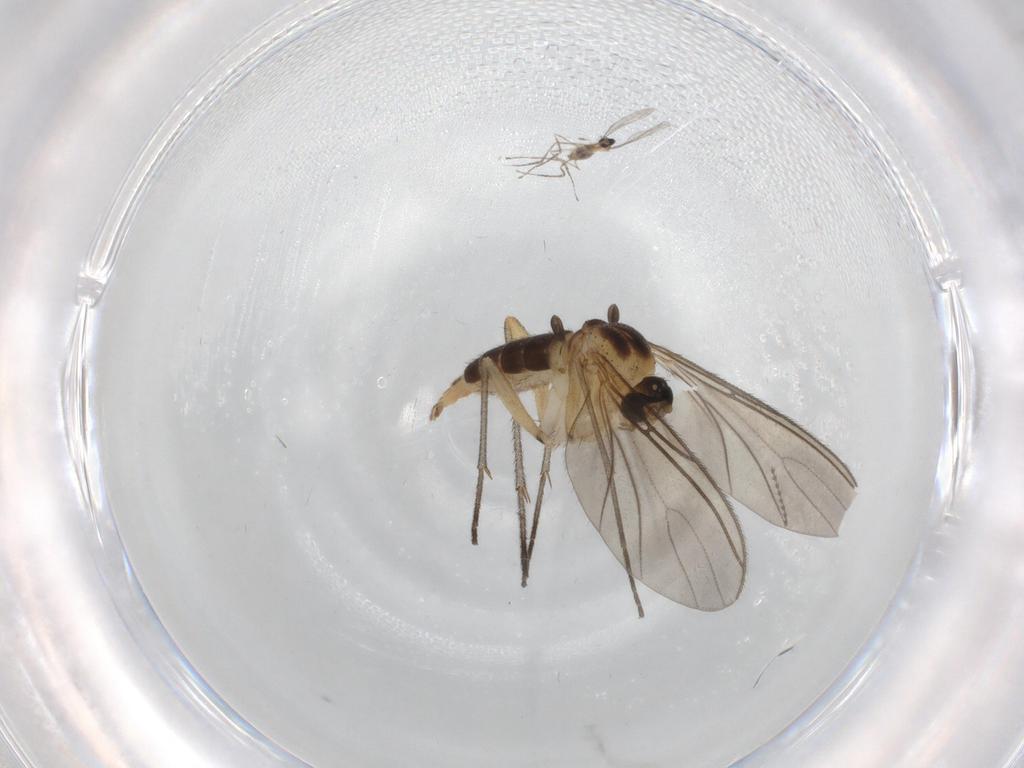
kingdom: Animalia
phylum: Arthropoda
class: Insecta
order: Diptera
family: Cecidomyiidae
